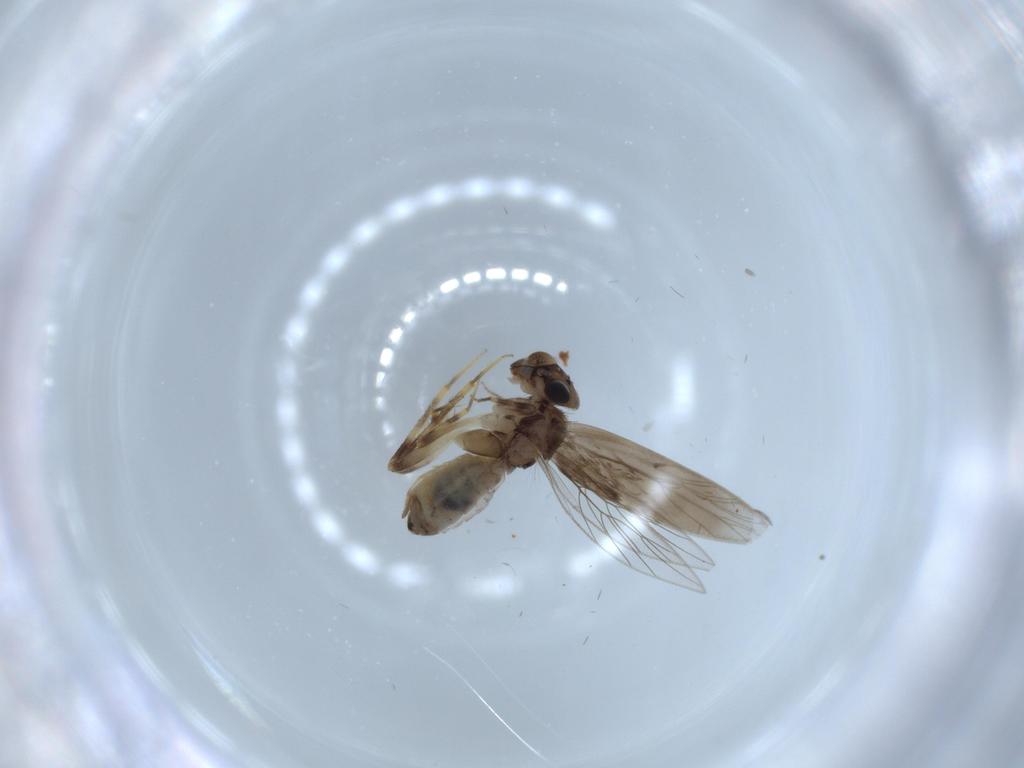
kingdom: Animalia
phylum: Arthropoda
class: Insecta
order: Psocodea
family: Lepidopsocidae
